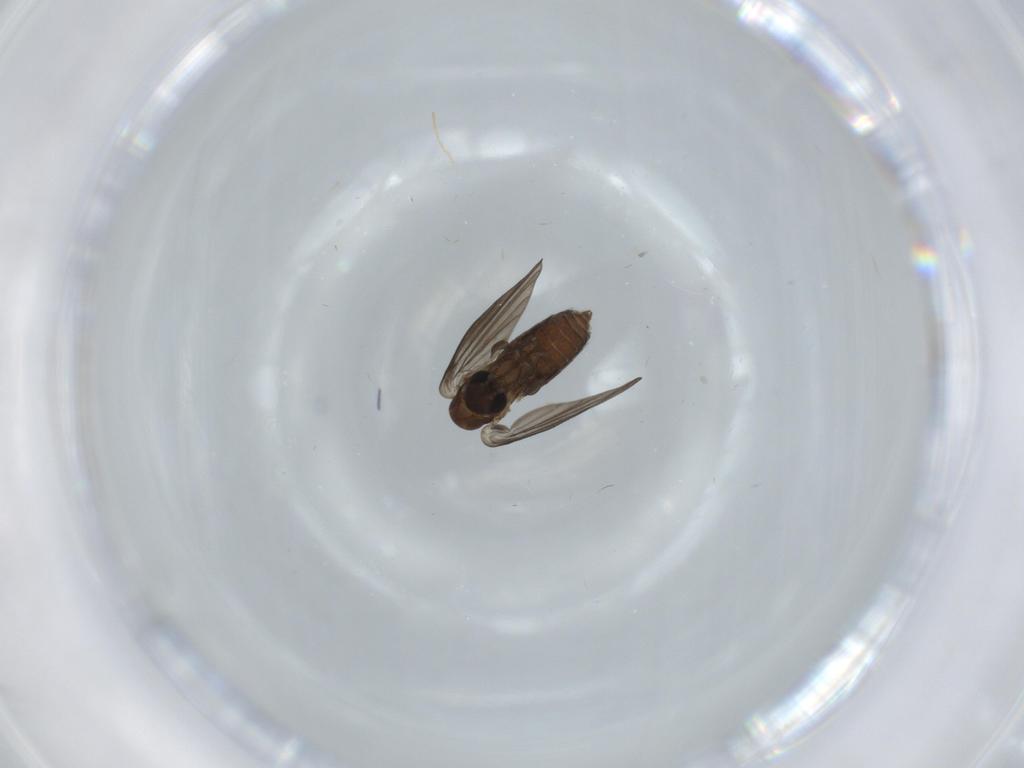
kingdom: Animalia
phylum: Arthropoda
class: Insecta
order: Diptera
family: Psychodidae
